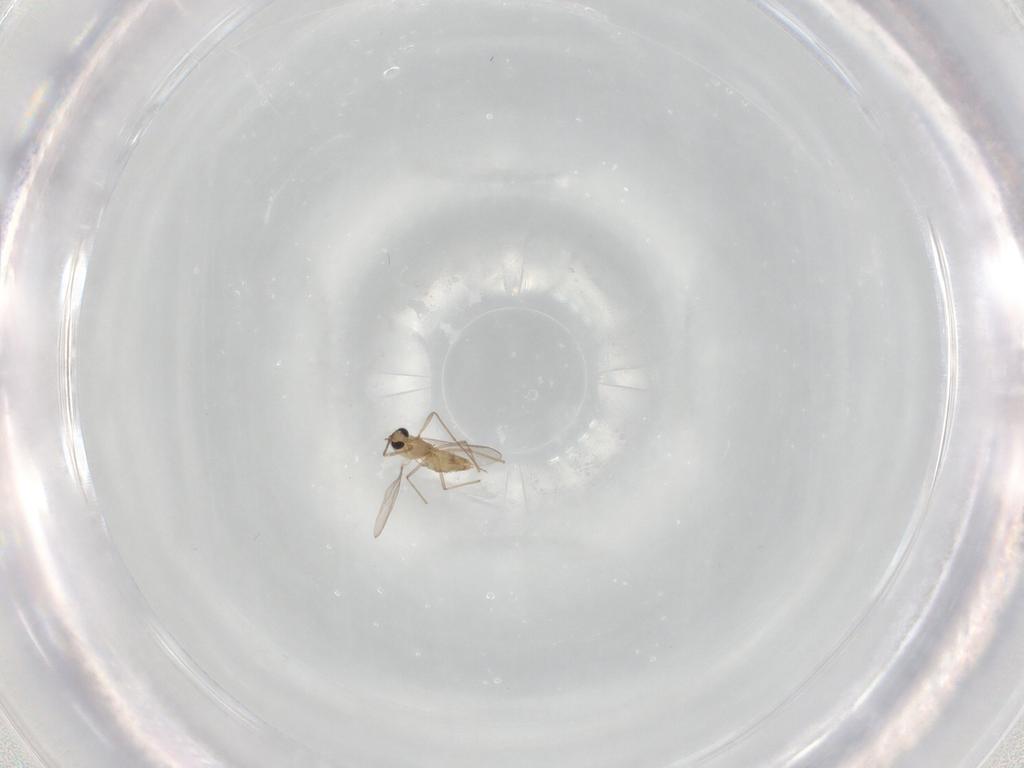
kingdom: Animalia
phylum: Arthropoda
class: Insecta
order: Diptera
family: Chironomidae
